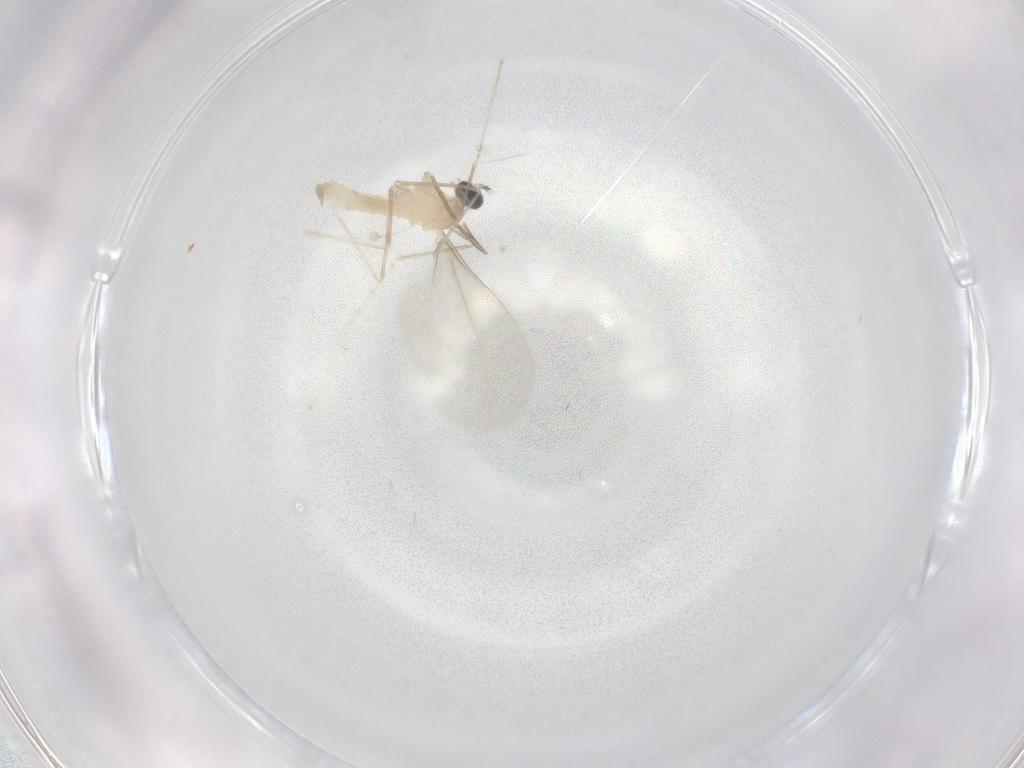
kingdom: Animalia
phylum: Arthropoda
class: Insecta
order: Diptera
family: Cecidomyiidae
